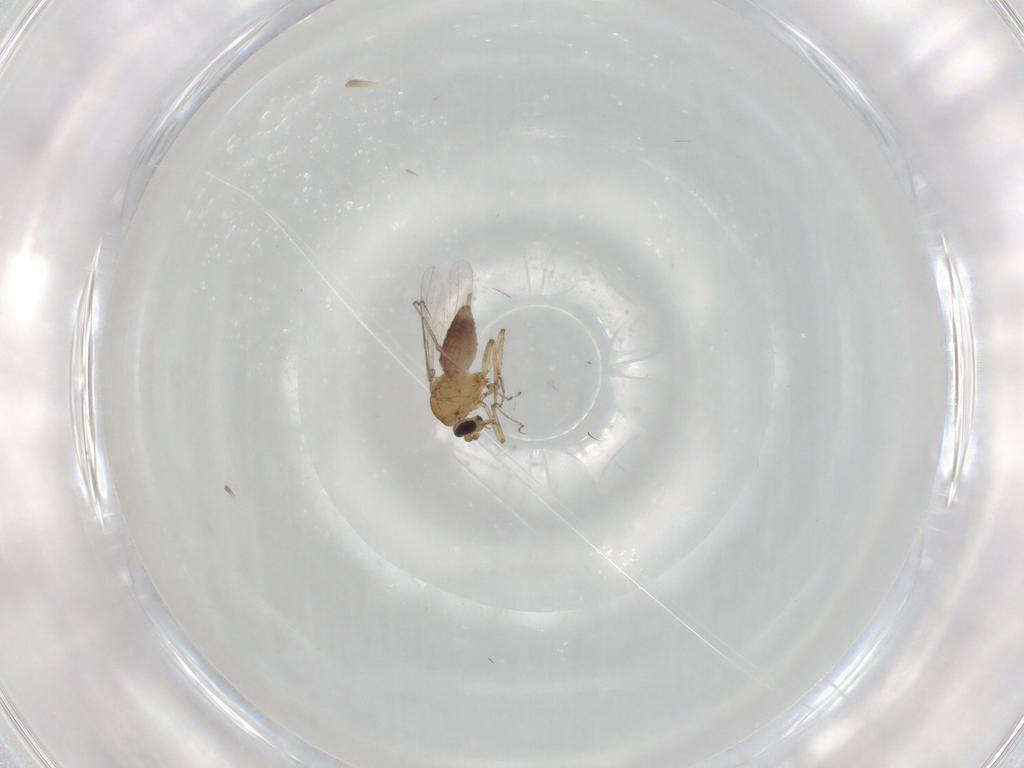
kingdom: Animalia
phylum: Arthropoda
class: Insecta
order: Diptera
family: Ceratopogonidae
